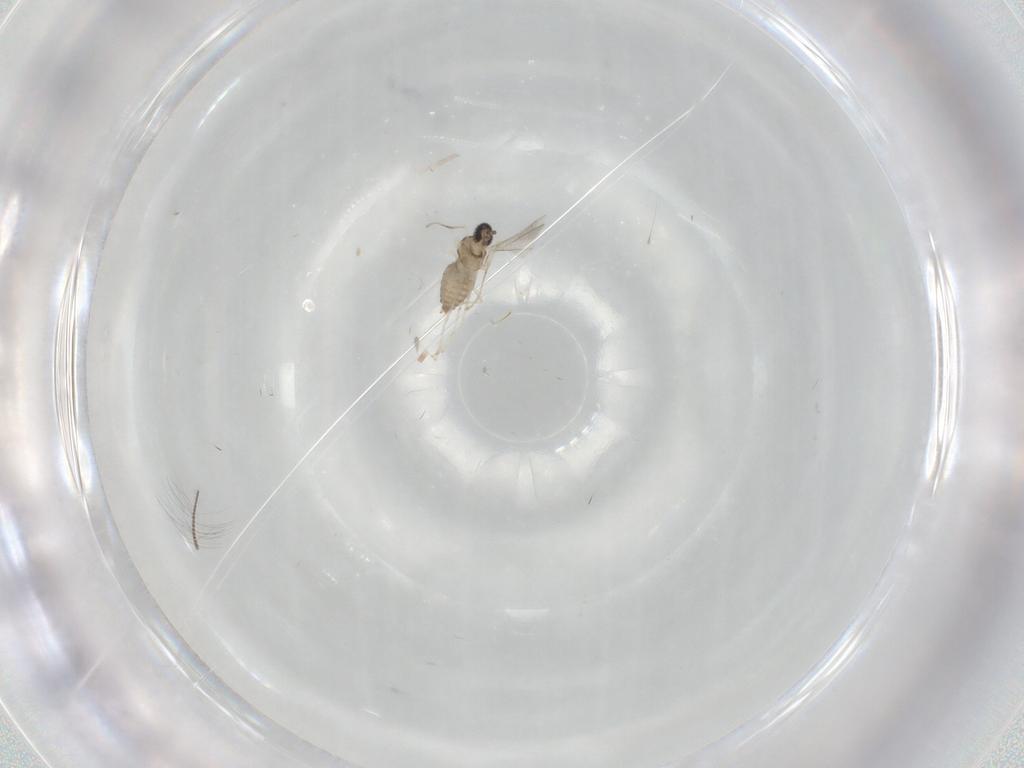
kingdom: Animalia
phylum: Arthropoda
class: Insecta
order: Diptera
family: Cecidomyiidae
